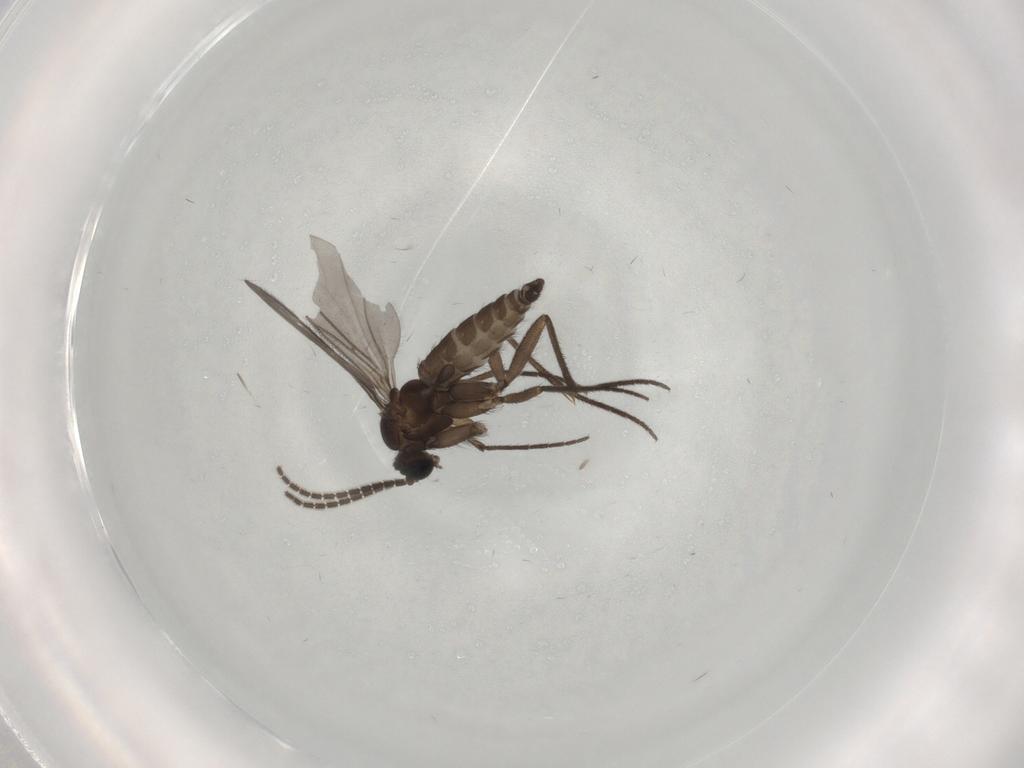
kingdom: Animalia
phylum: Arthropoda
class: Insecta
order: Diptera
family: Sciaridae
